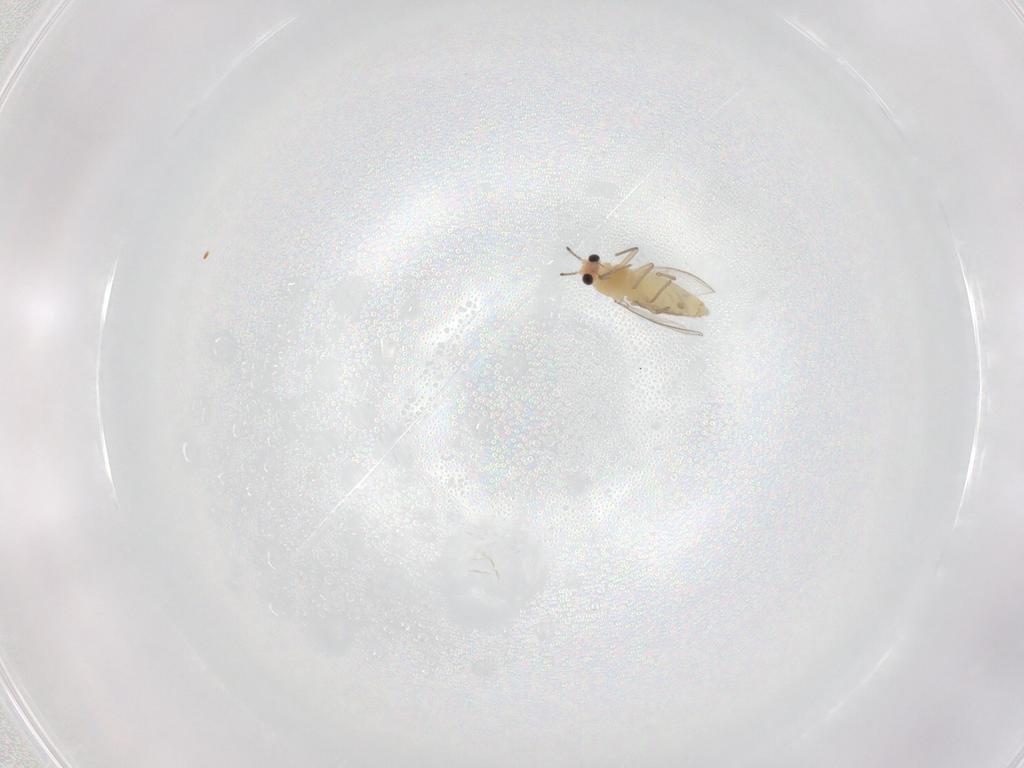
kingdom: Animalia
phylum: Arthropoda
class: Insecta
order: Diptera
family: Chironomidae
